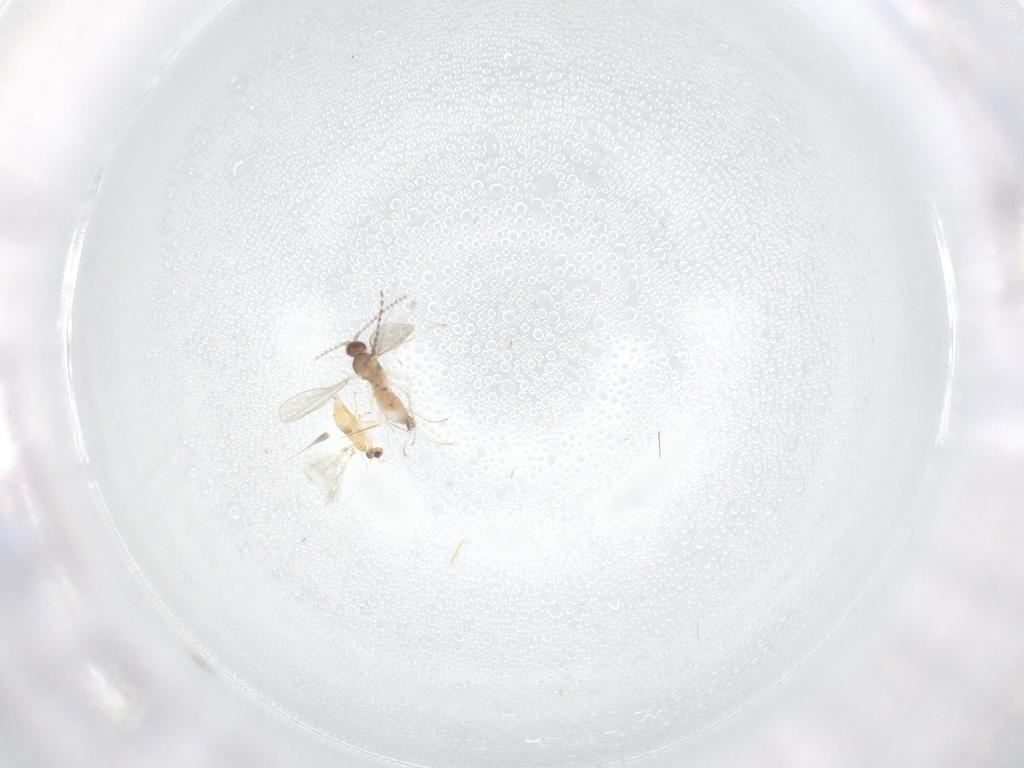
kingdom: Animalia
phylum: Arthropoda
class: Insecta
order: Diptera
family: Cecidomyiidae
